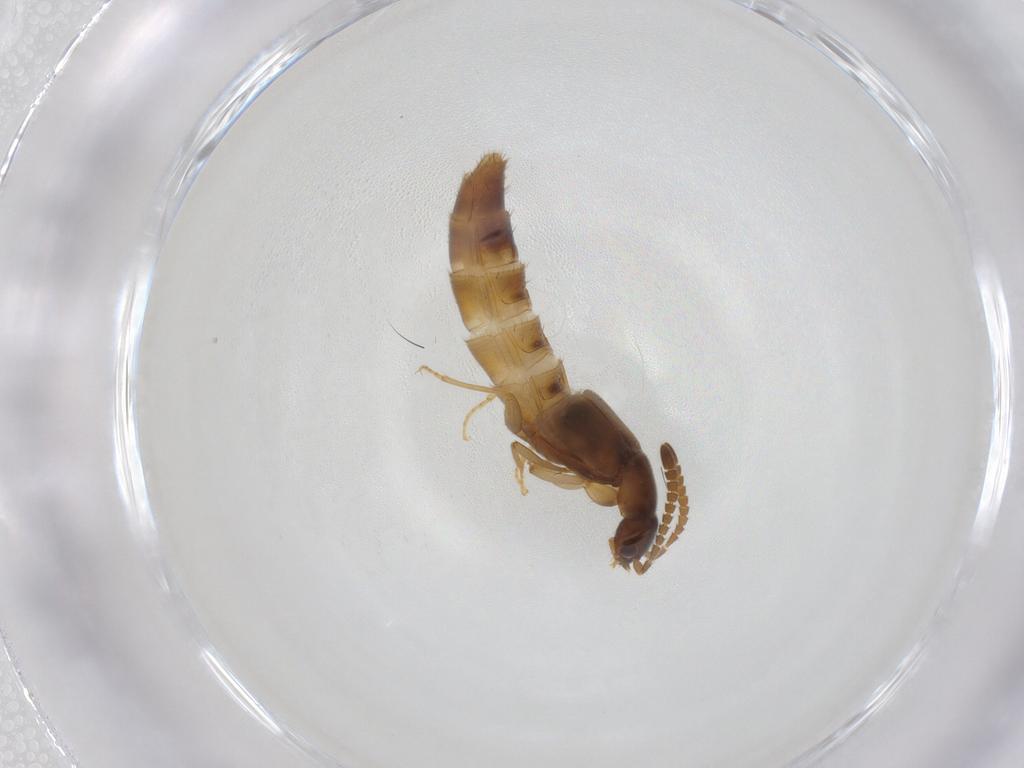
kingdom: Animalia
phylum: Arthropoda
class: Insecta
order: Coleoptera
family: Staphylinidae
